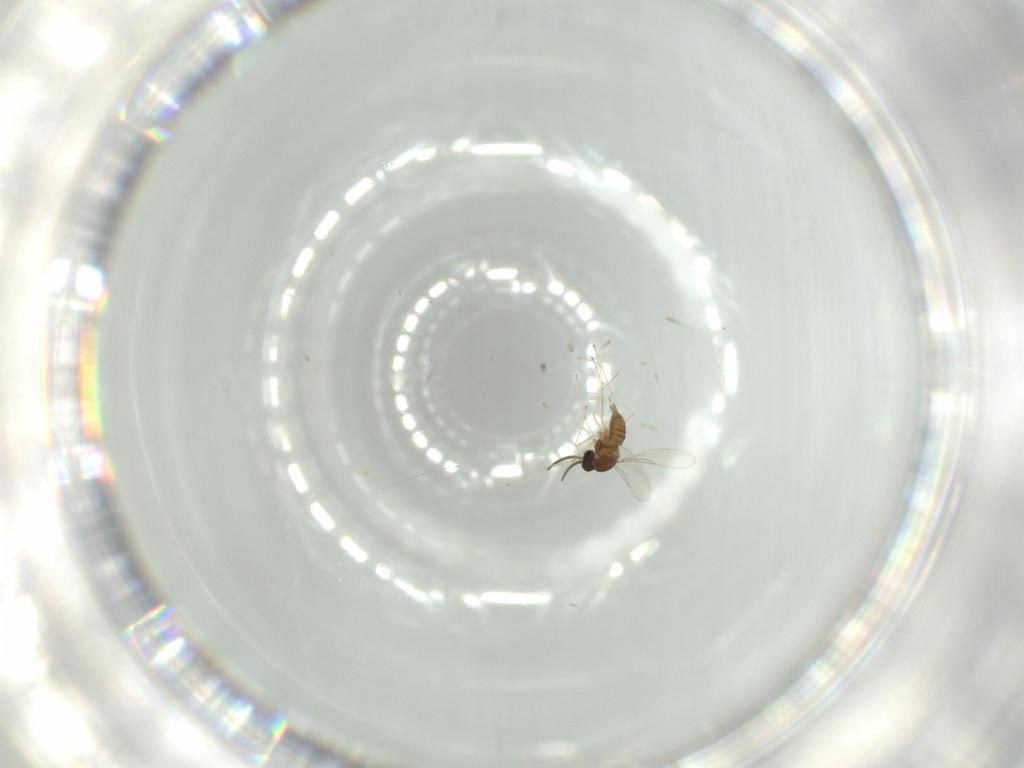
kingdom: Animalia
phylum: Arthropoda
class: Insecta
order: Diptera
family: Cecidomyiidae
